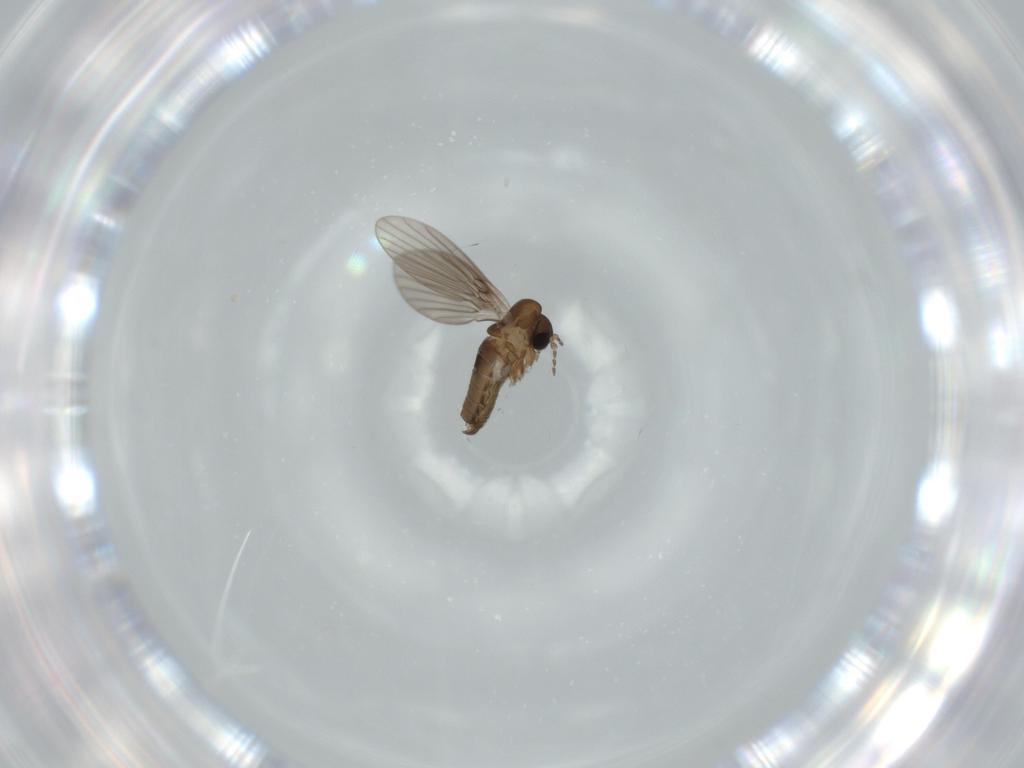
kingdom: Animalia
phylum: Arthropoda
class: Insecta
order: Diptera
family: Psychodidae
